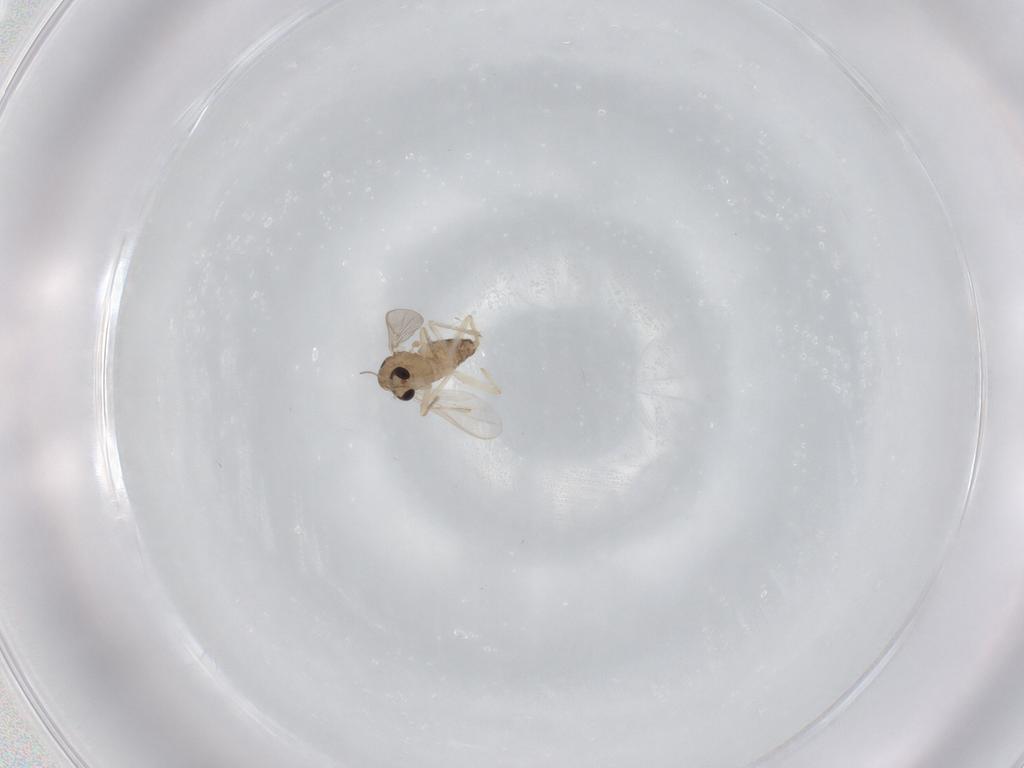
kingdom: Animalia
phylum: Arthropoda
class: Insecta
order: Diptera
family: Chironomidae
